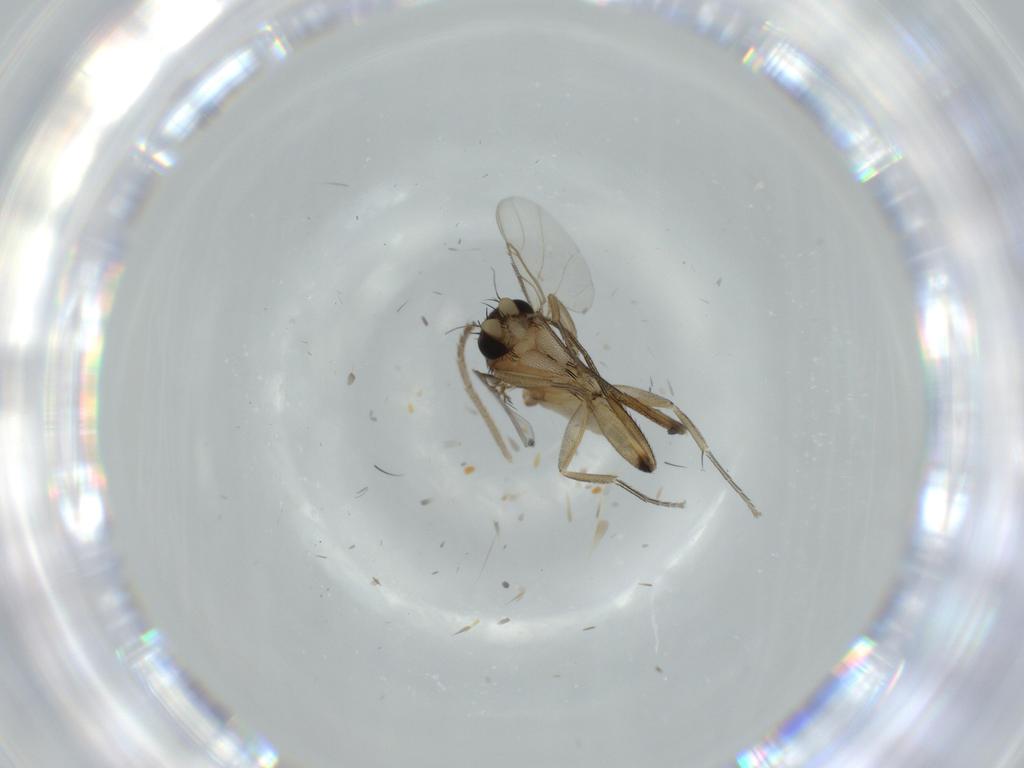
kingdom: Animalia
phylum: Arthropoda
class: Insecta
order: Diptera
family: Phoridae
